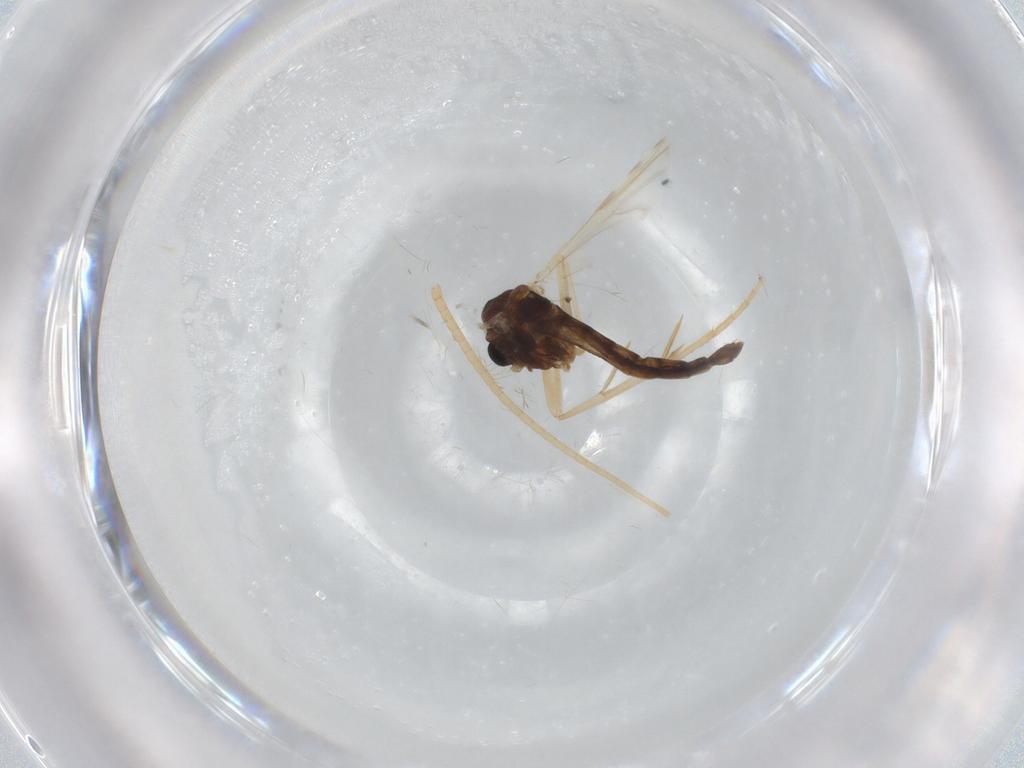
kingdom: Animalia
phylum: Arthropoda
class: Insecta
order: Diptera
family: Chironomidae
